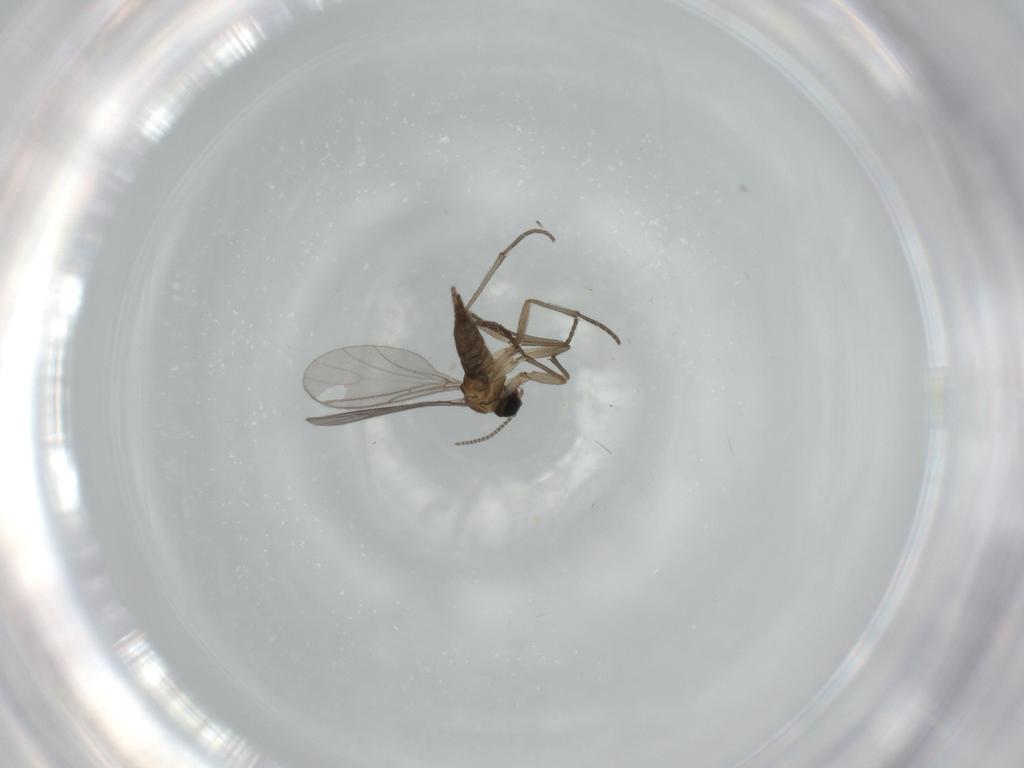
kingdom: Animalia
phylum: Arthropoda
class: Insecta
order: Diptera
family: Sciaridae
